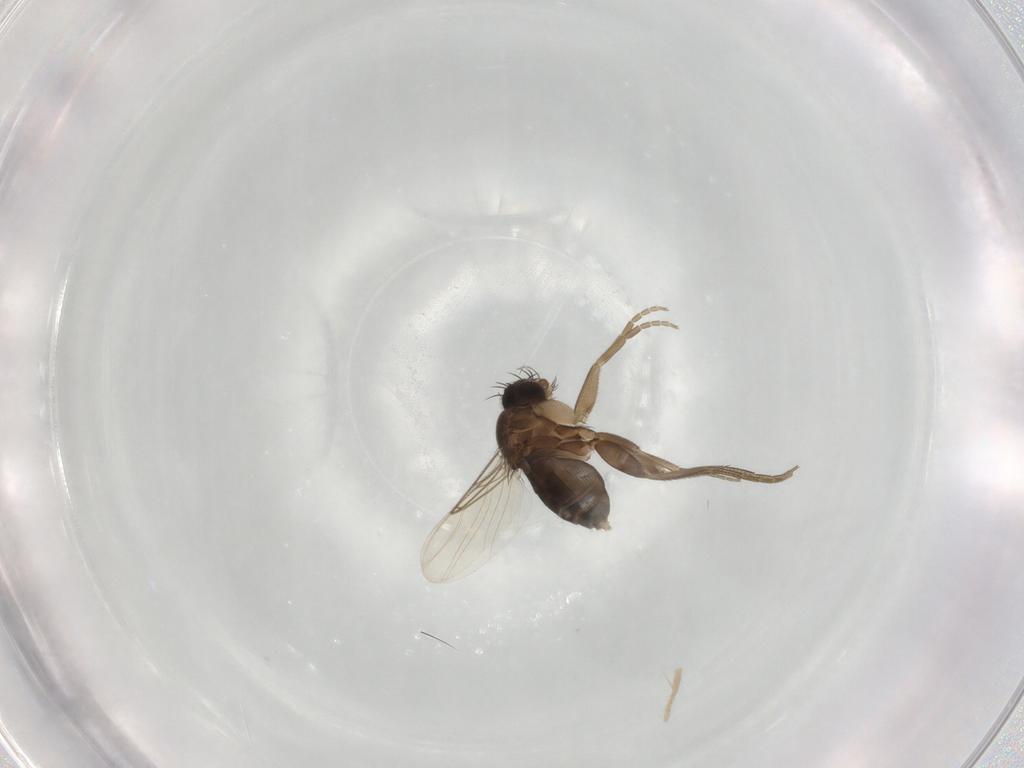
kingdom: Animalia
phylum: Arthropoda
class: Insecta
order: Diptera
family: Phoridae
